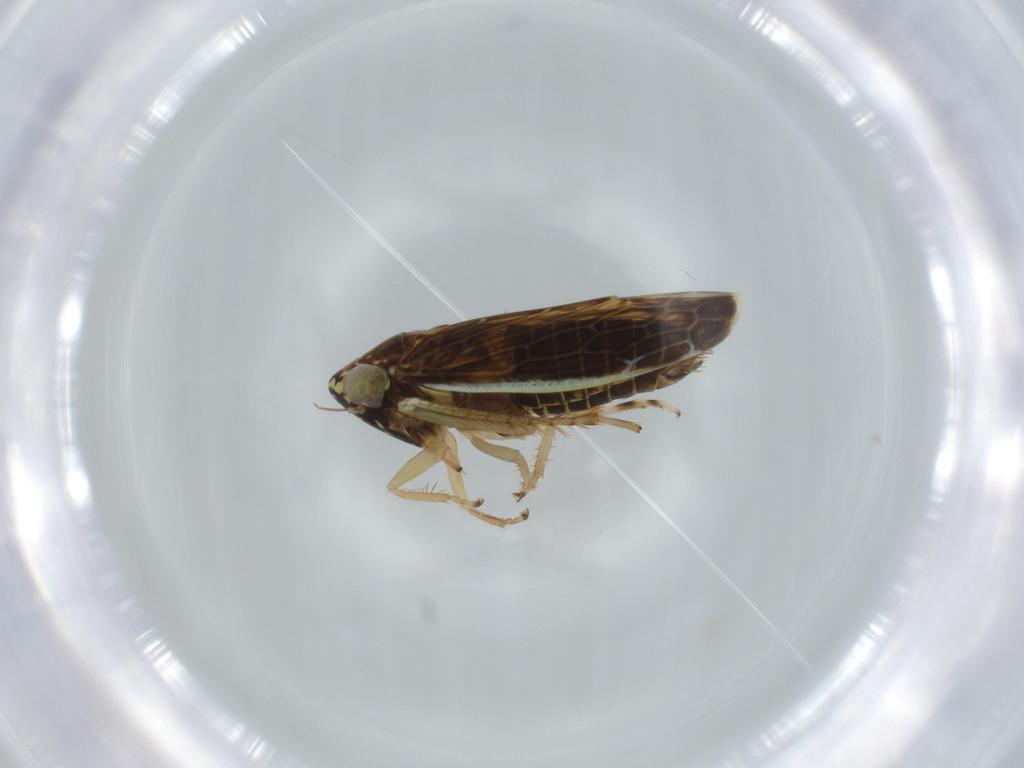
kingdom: Animalia
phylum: Arthropoda
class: Insecta
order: Hemiptera
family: Cicadellidae
